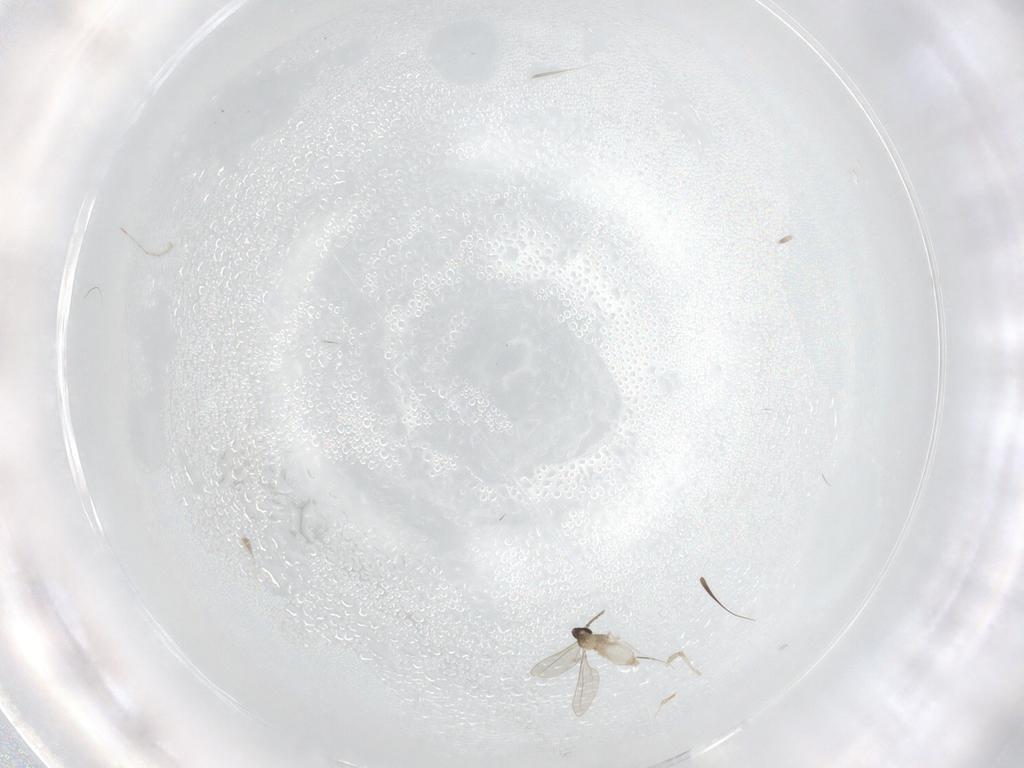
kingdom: Animalia
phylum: Arthropoda
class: Insecta
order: Diptera
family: Cecidomyiidae
